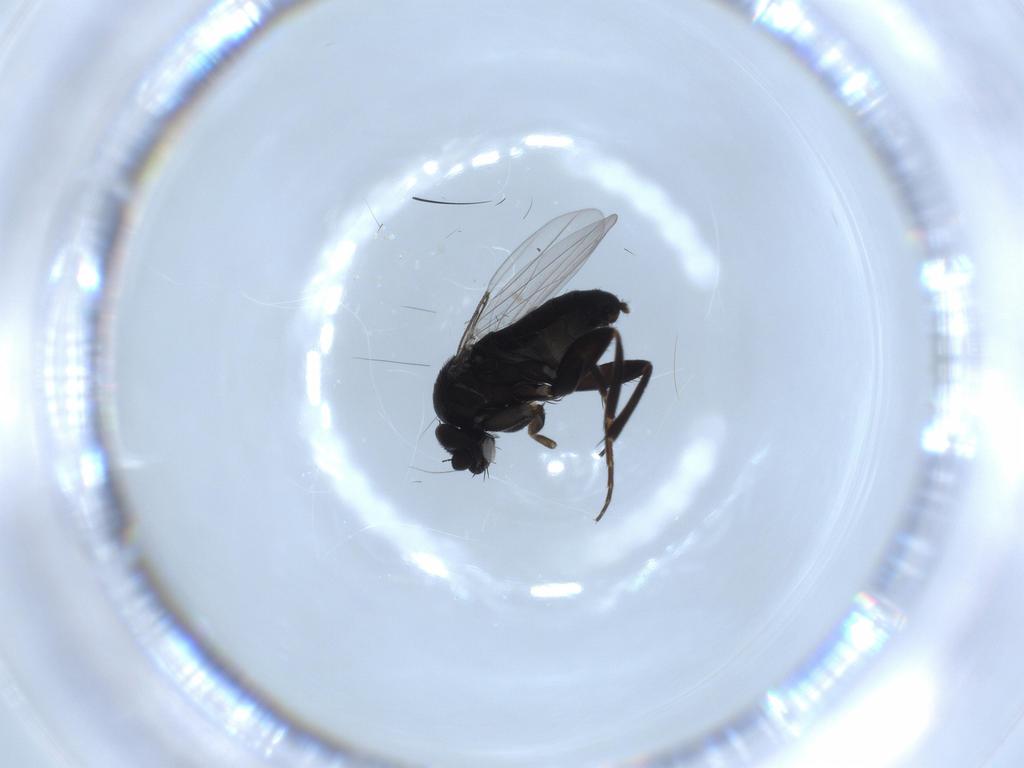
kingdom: Animalia
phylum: Arthropoda
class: Insecta
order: Diptera
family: Phoridae
